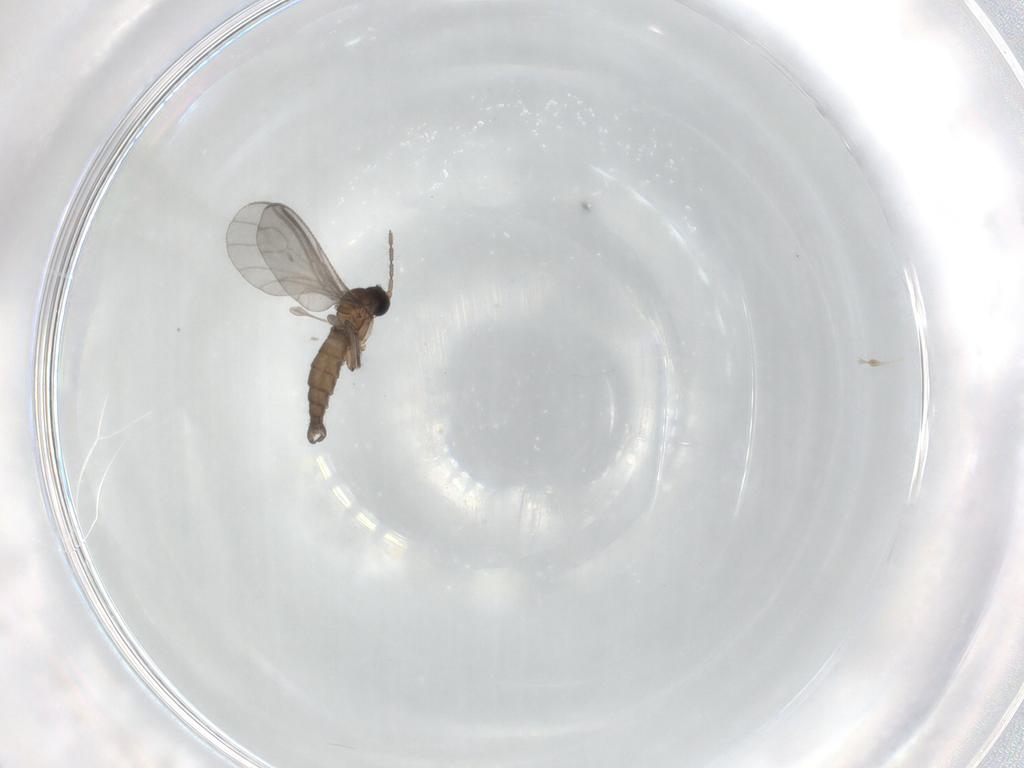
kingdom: Animalia
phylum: Arthropoda
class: Insecta
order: Diptera
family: Sciaridae
